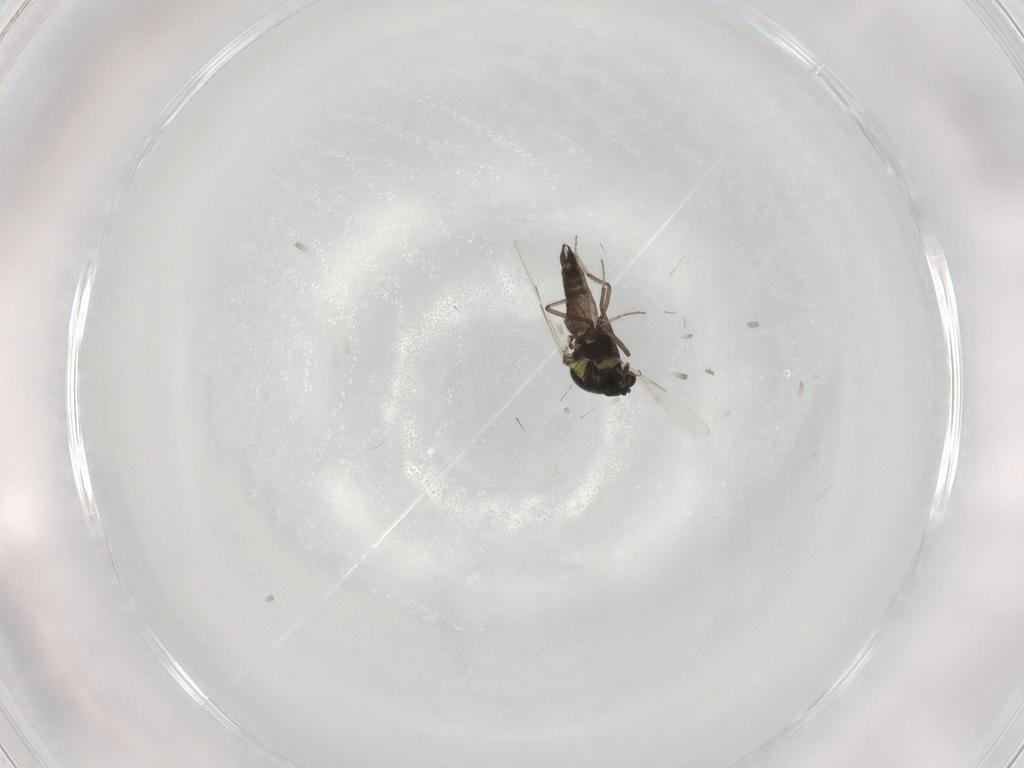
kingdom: Animalia
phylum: Arthropoda
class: Insecta
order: Diptera
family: Ceratopogonidae
